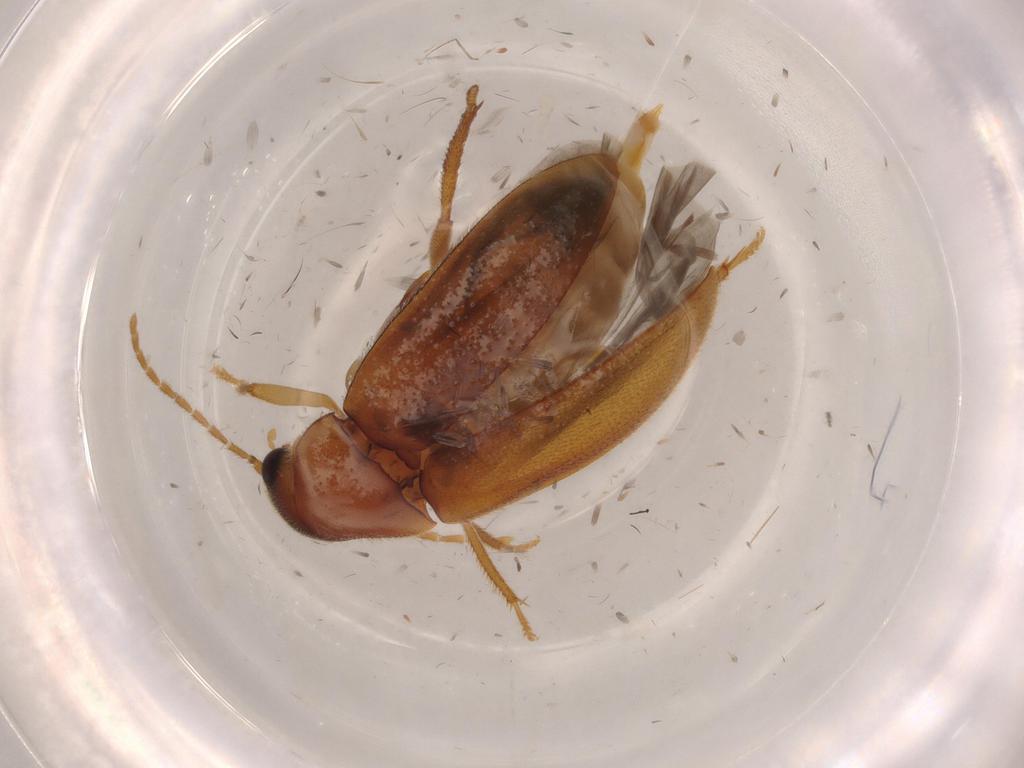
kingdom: Animalia
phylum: Arthropoda
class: Insecta
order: Coleoptera
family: Ptilodactylidae
